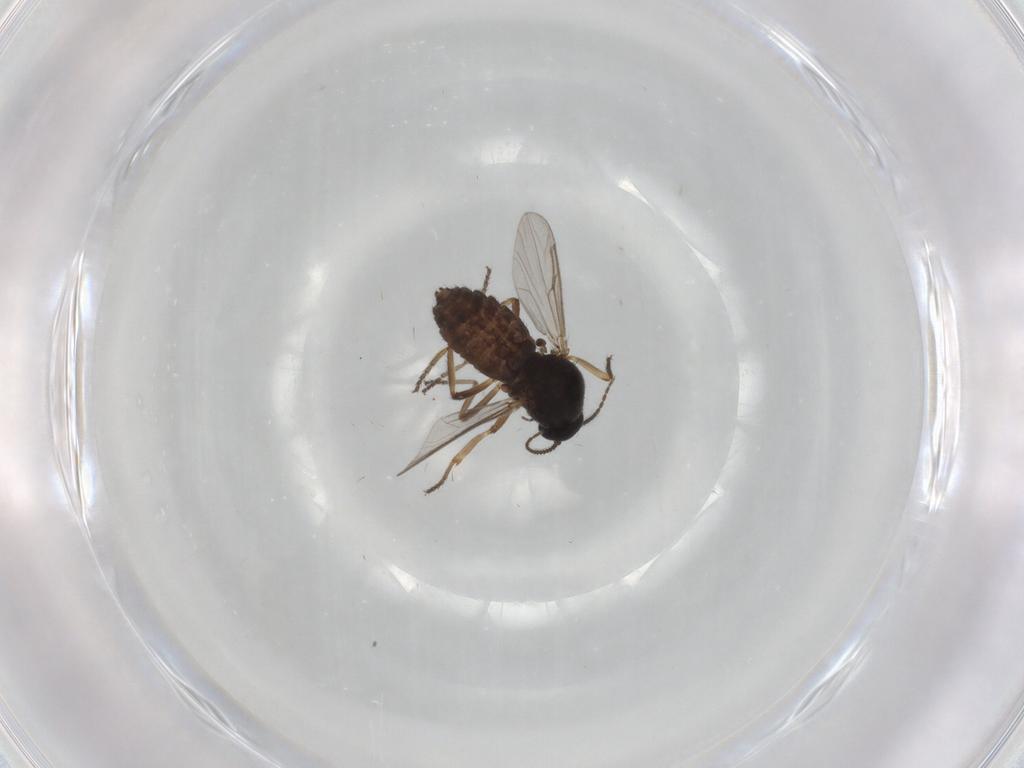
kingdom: Animalia
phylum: Arthropoda
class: Insecta
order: Diptera
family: Ceratopogonidae
